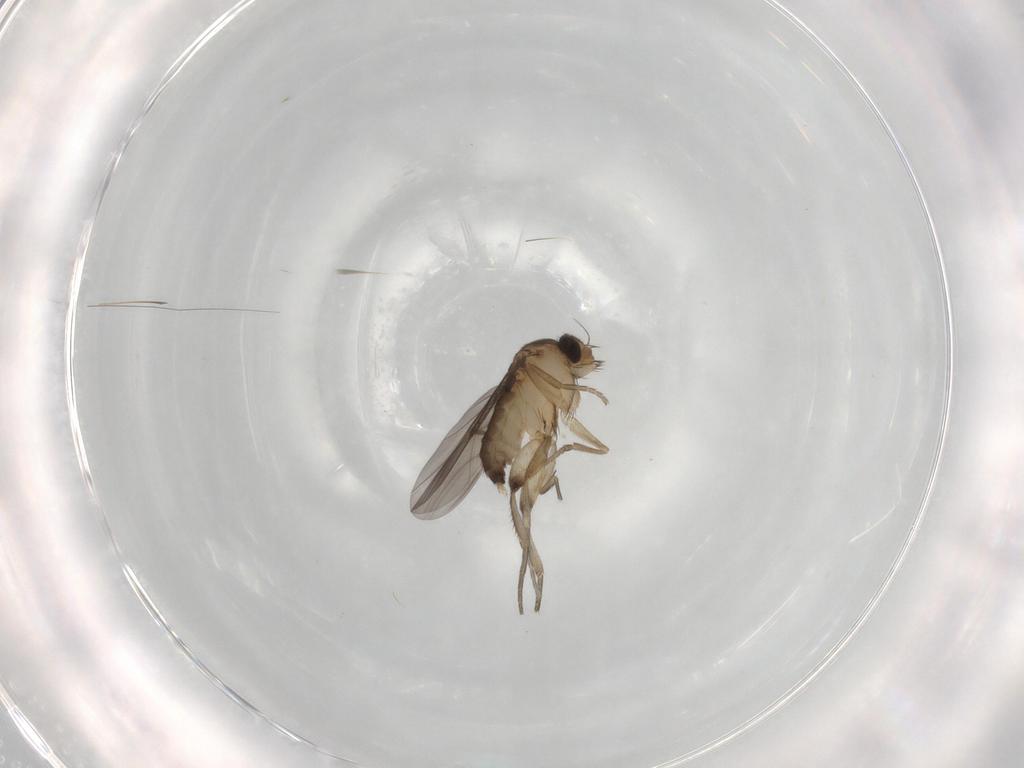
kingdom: Animalia
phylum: Arthropoda
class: Insecta
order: Diptera
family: Phoridae
